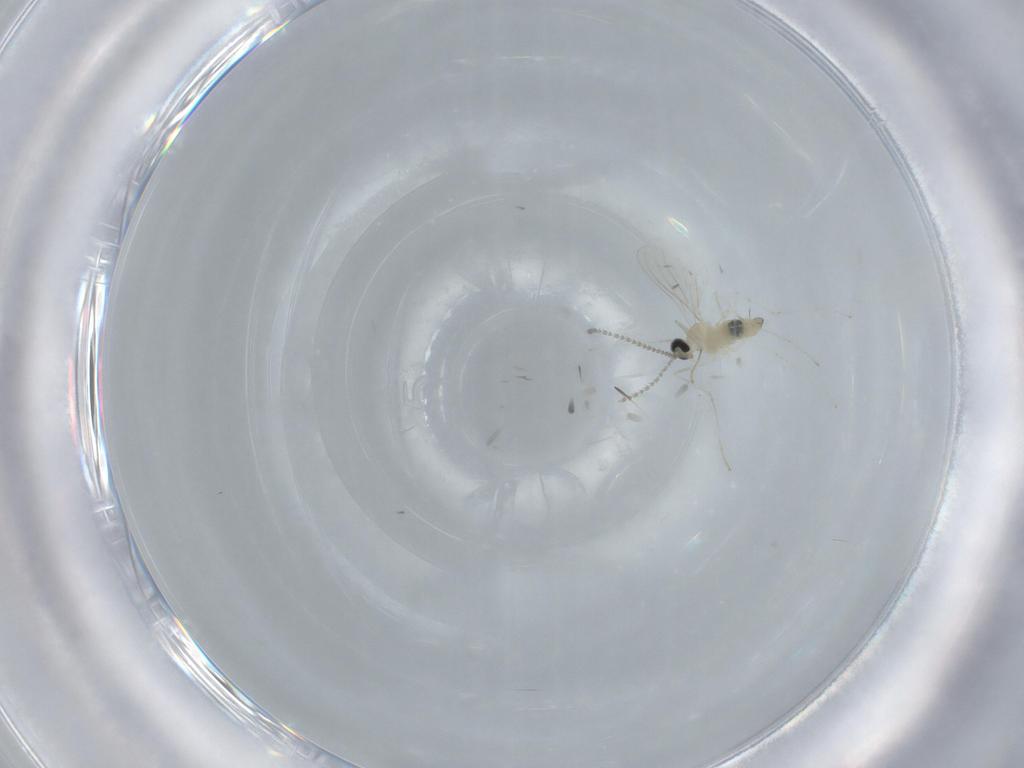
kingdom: Animalia
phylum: Arthropoda
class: Insecta
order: Diptera
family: Cecidomyiidae
